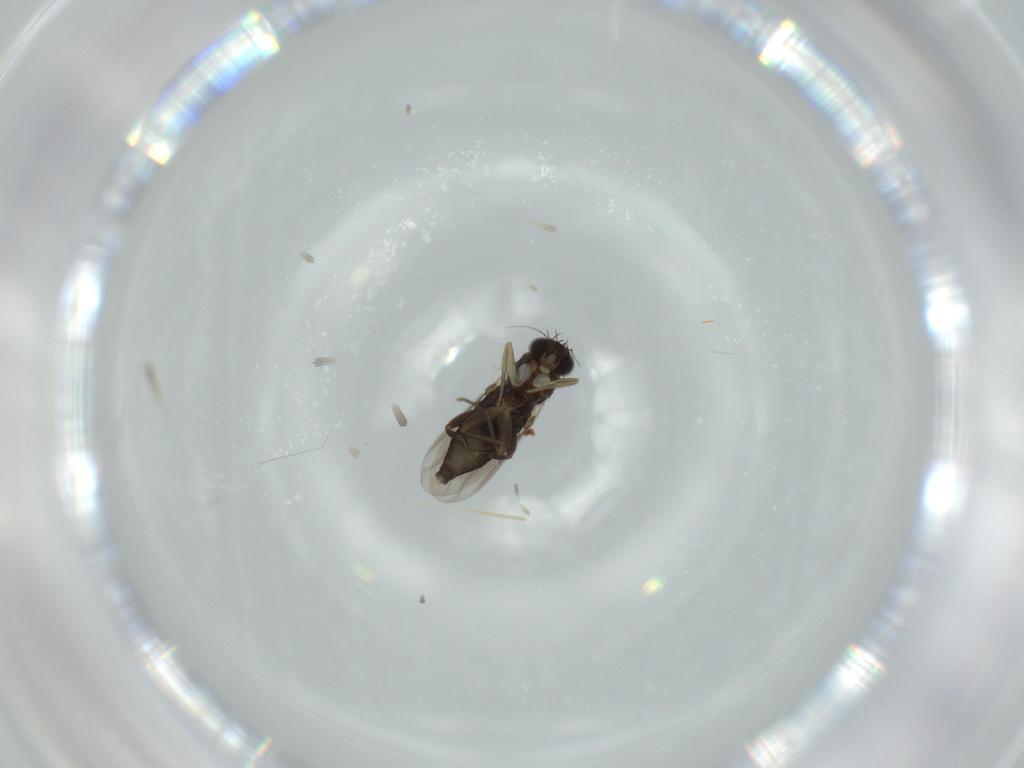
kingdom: Animalia
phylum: Arthropoda
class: Insecta
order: Diptera
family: Phoridae
